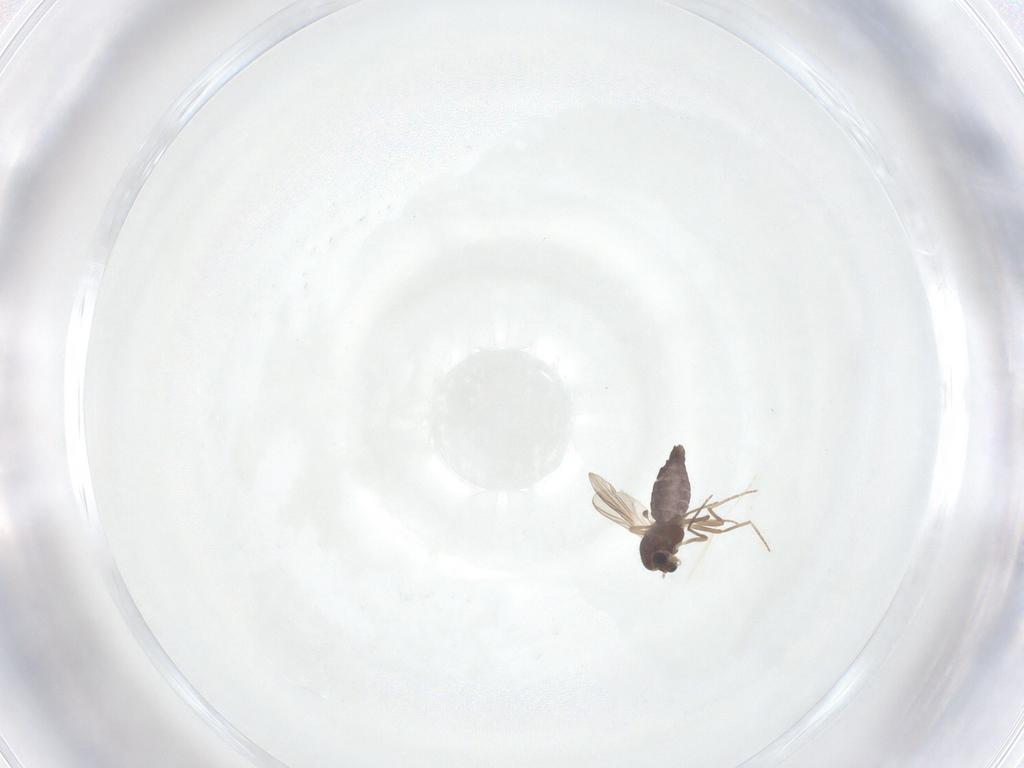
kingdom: Animalia
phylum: Arthropoda
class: Insecta
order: Diptera
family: Chironomidae
